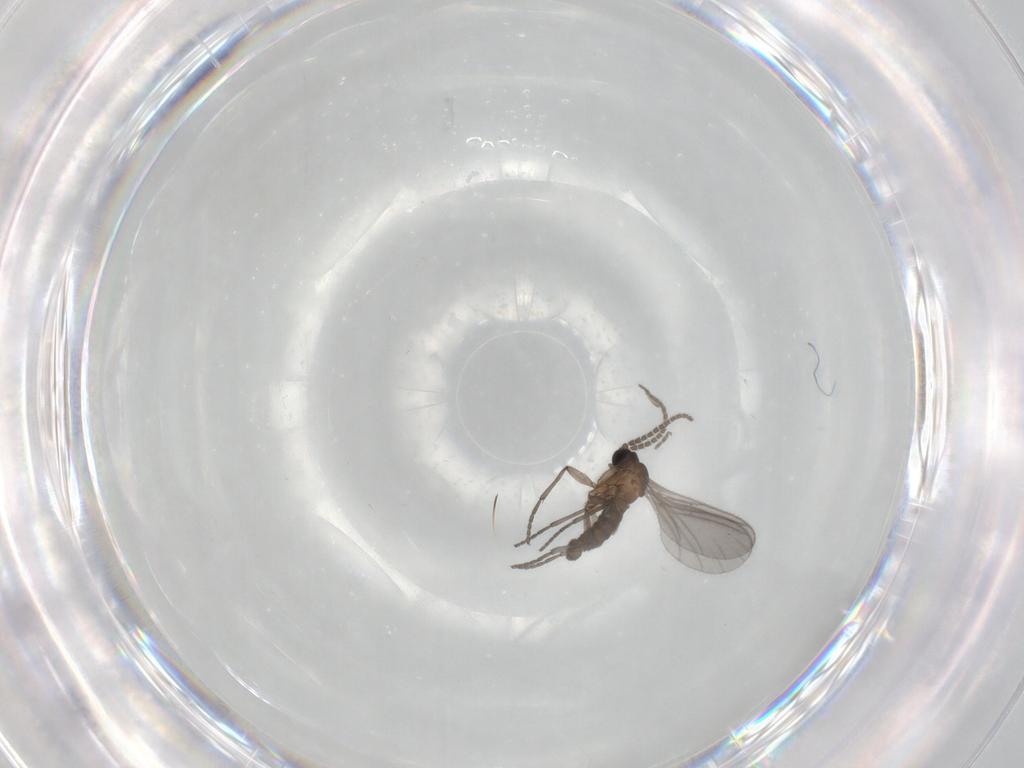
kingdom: Animalia
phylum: Arthropoda
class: Insecta
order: Diptera
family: Sciaridae
